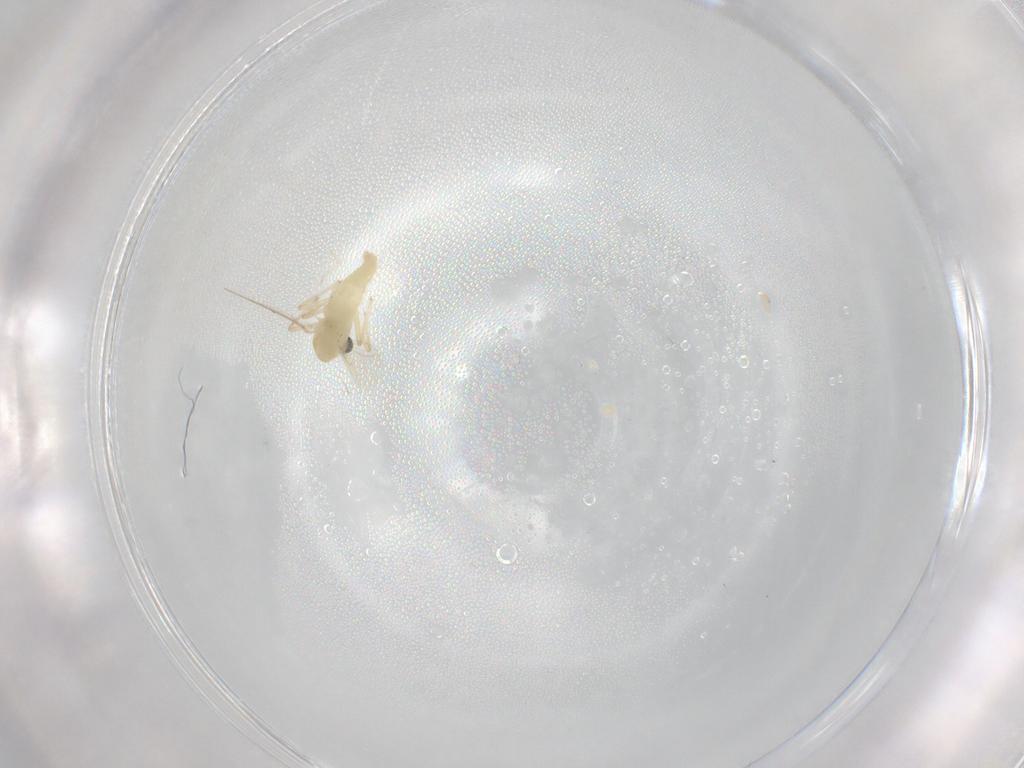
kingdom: Animalia
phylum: Arthropoda
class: Insecta
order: Diptera
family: Chironomidae
